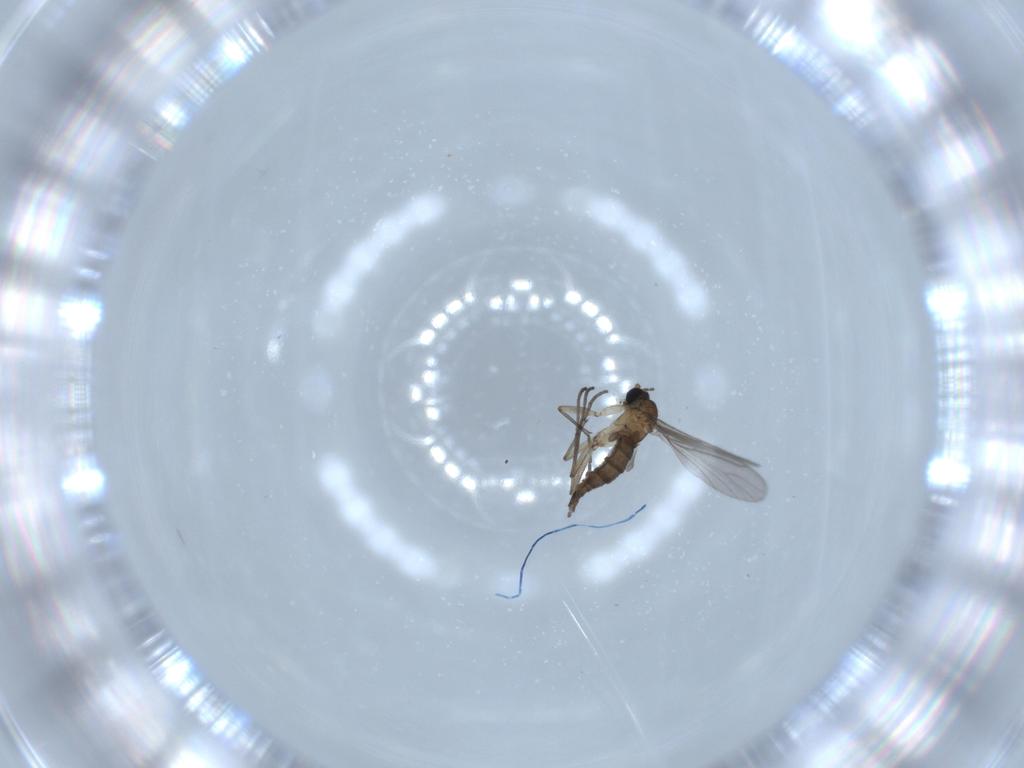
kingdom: Animalia
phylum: Arthropoda
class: Insecta
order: Diptera
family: Sciaridae
